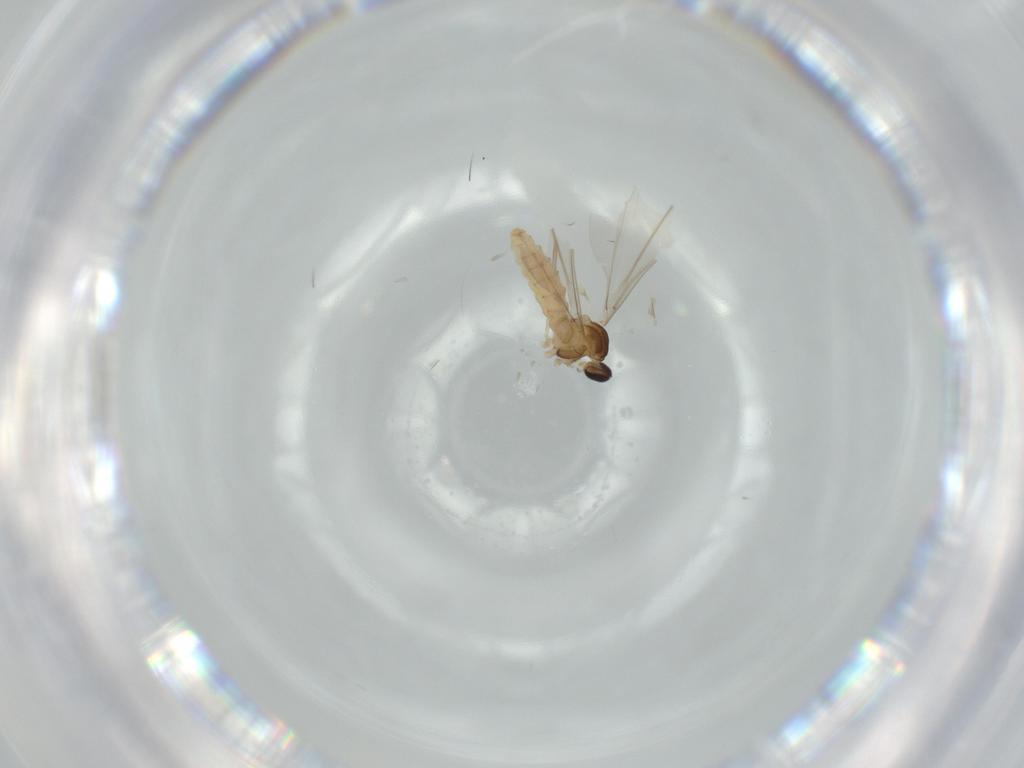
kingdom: Animalia
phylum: Arthropoda
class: Insecta
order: Diptera
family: Cecidomyiidae
